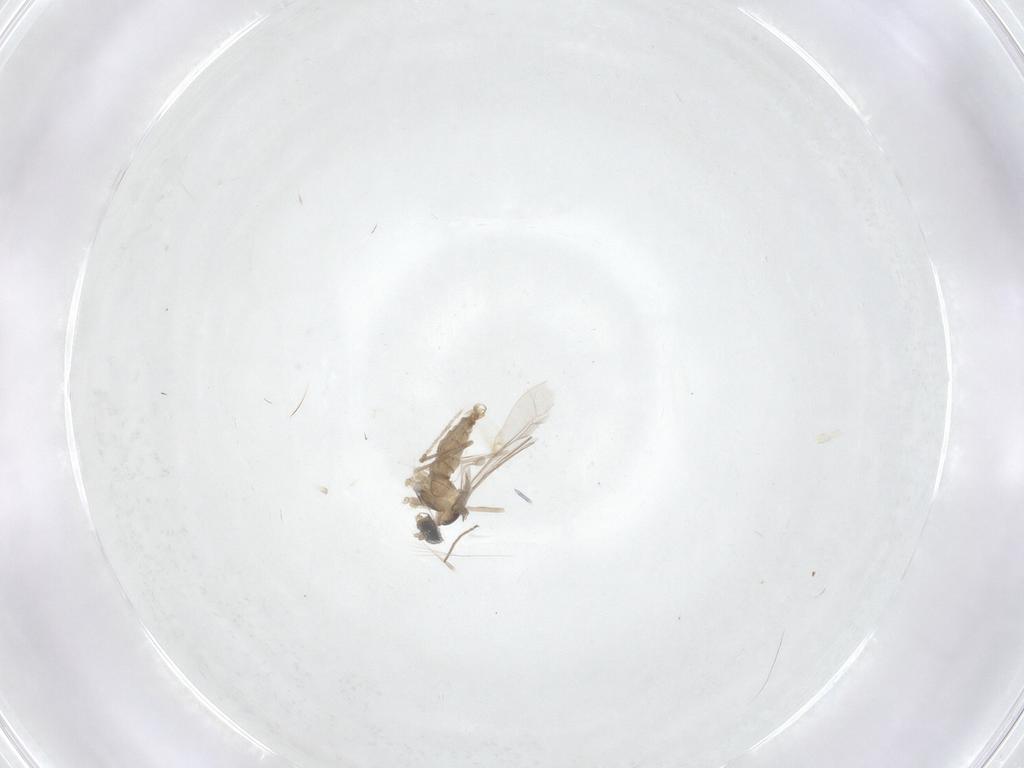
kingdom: Animalia
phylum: Arthropoda
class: Insecta
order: Diptera
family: Cecidomyiidae
